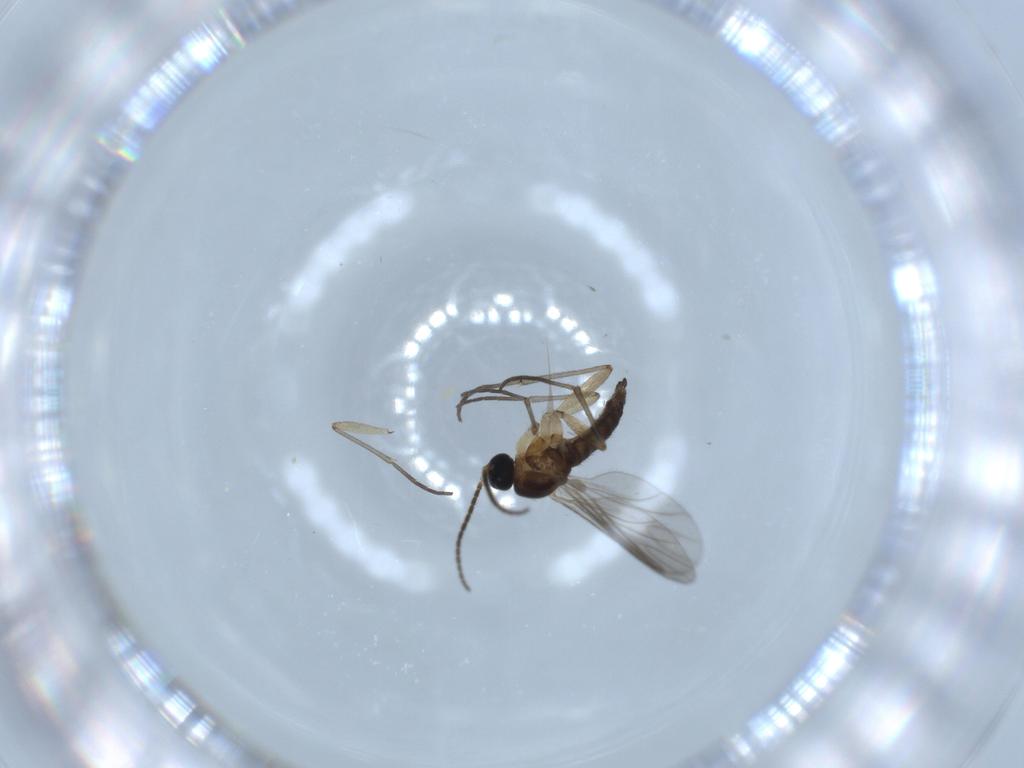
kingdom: Animalia
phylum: Arthropoda
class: Insecta
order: Diptera
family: Sciaridae
